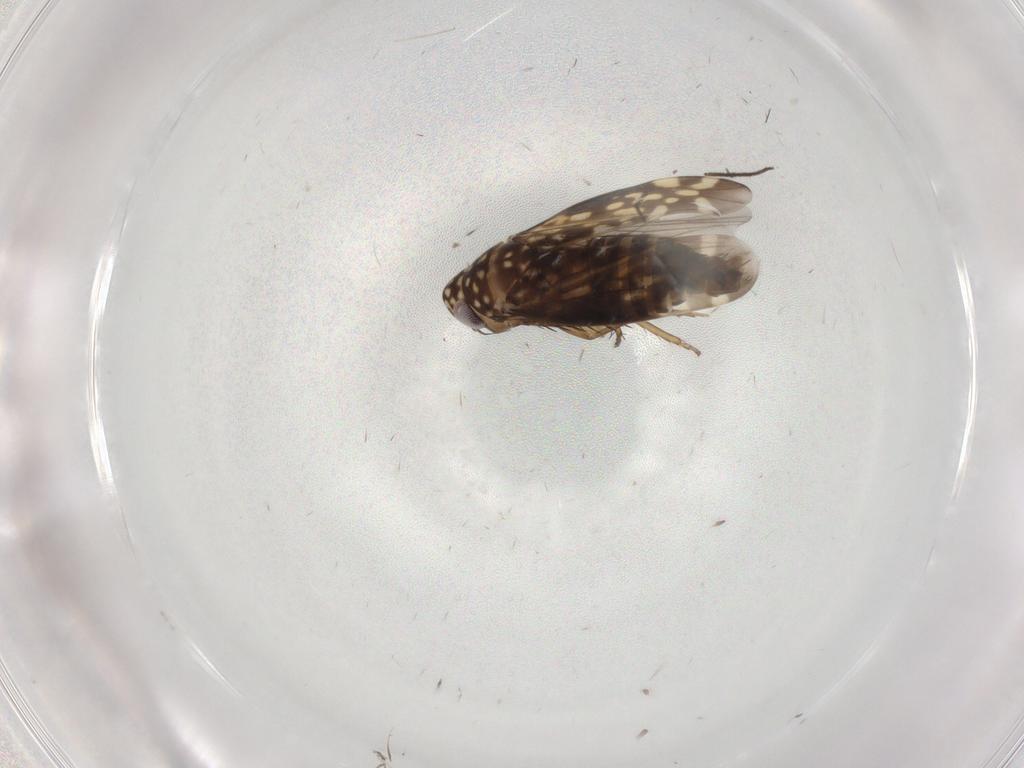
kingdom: Animalia
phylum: Arthropoda
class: Insecta
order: Hemiptera
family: Cicadellidae
